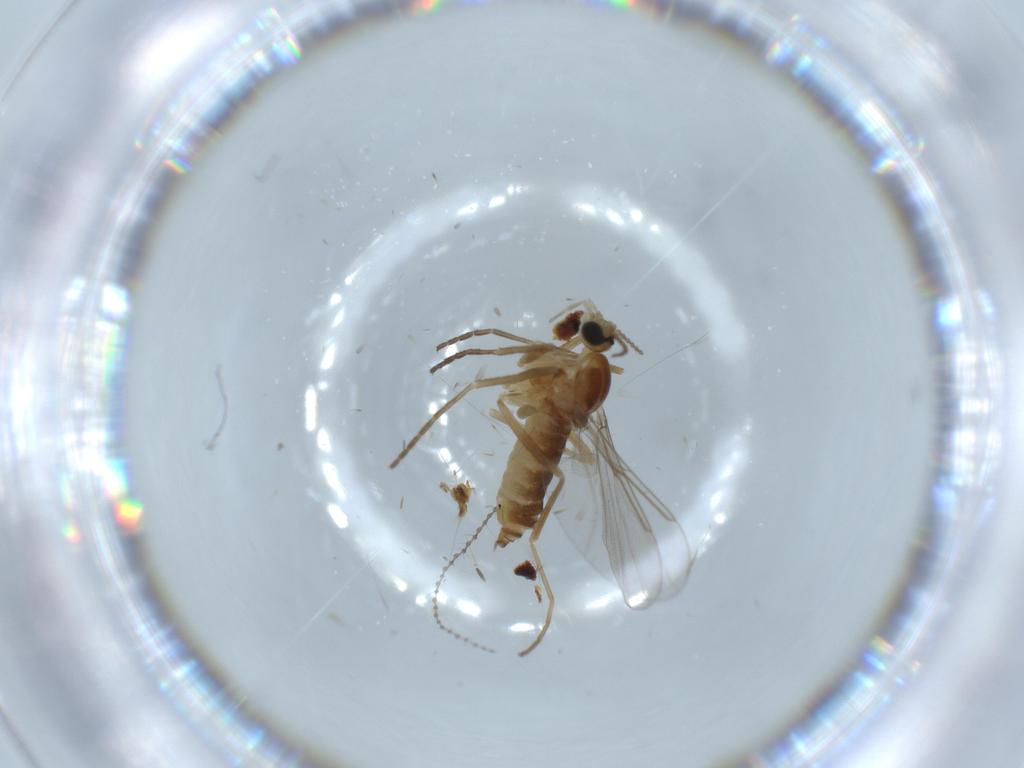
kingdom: Animalia
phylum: Arthropoda
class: Insecta
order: Diptera
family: Cecidomyiidae
